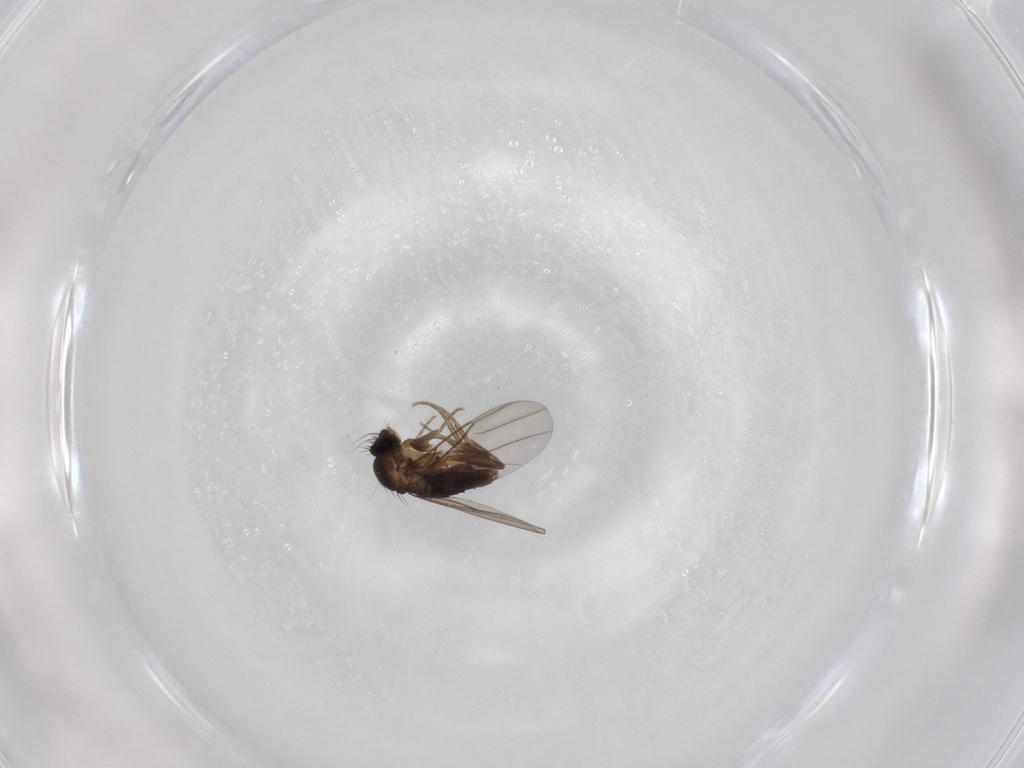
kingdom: Animalia
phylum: Arthropoda
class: Insecta
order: Diptera
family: Phoridae
